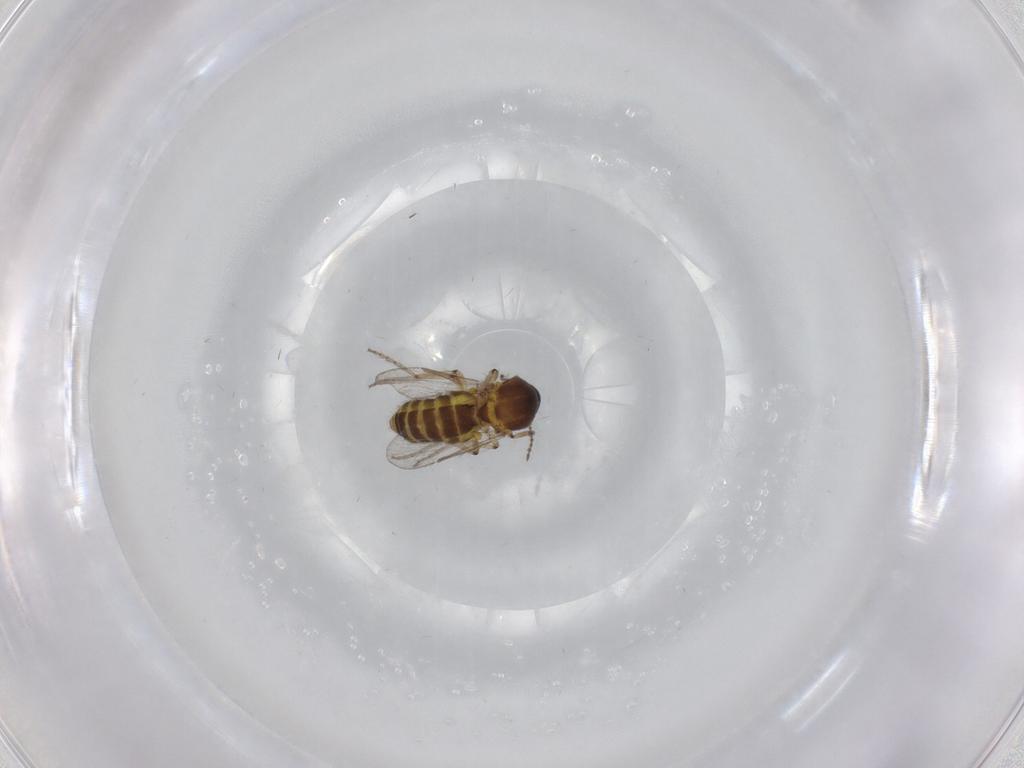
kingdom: Animalia
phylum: Arthropoda
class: Insecta
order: Diptera
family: Ceratopogonidae
